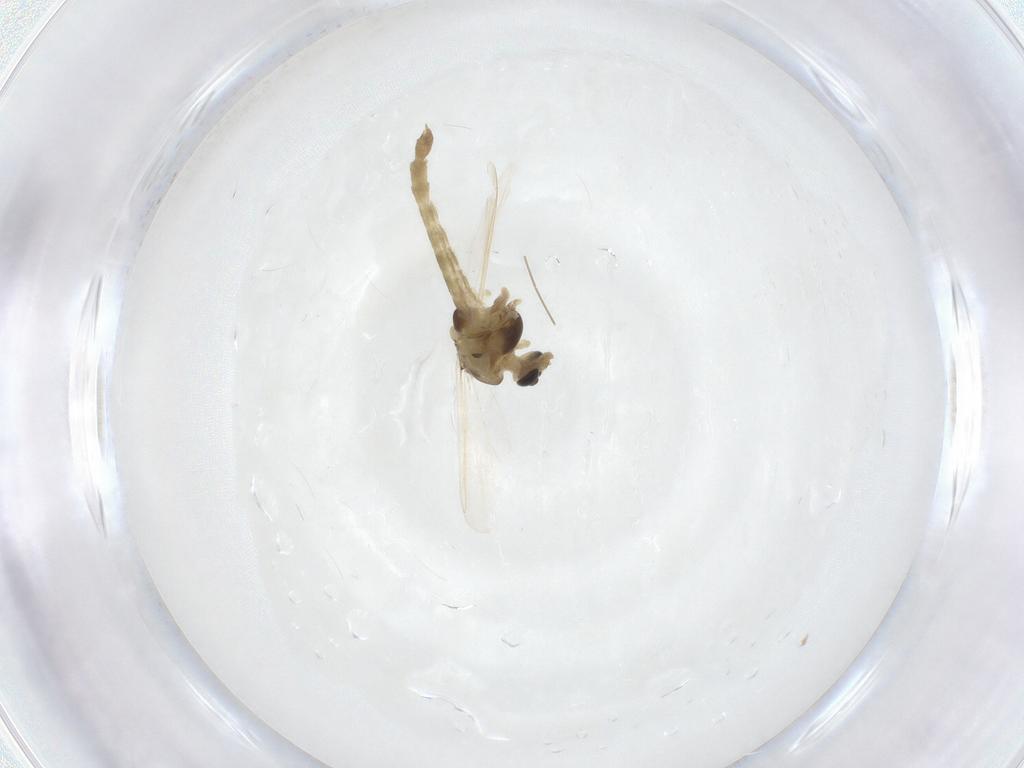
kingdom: Animalia
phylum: Arthropoda
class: Insecta
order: Diptera
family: Chironomidae
